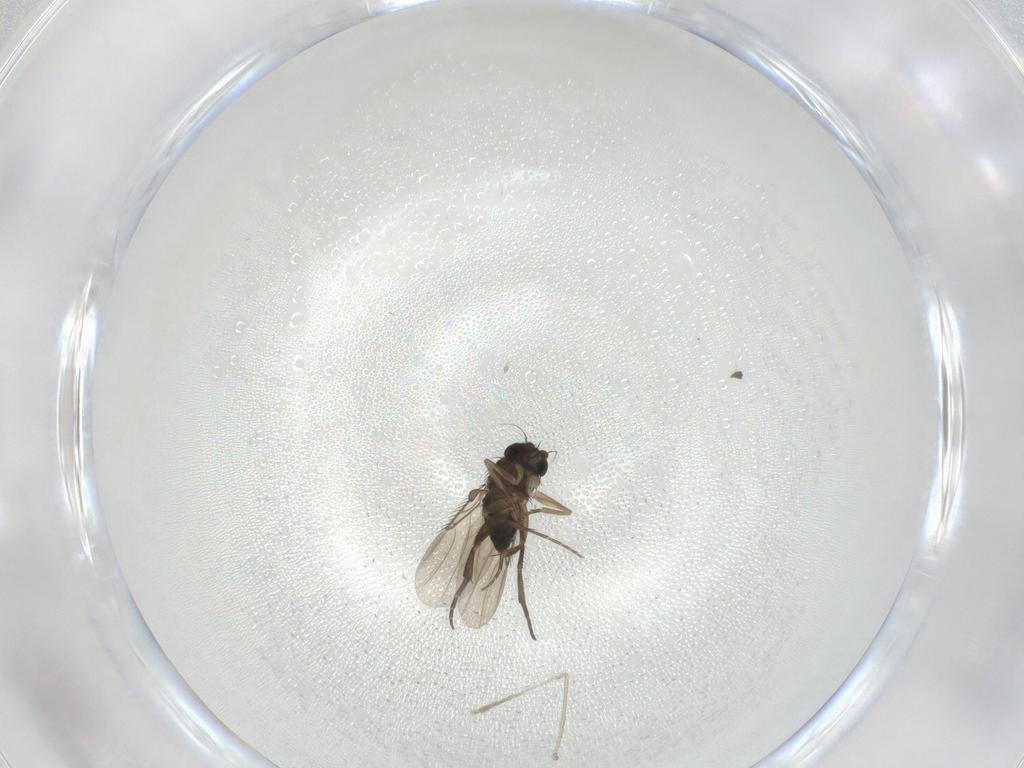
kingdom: Animalia
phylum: Arthropoda
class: Insecta
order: Diptera
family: Phoridae
